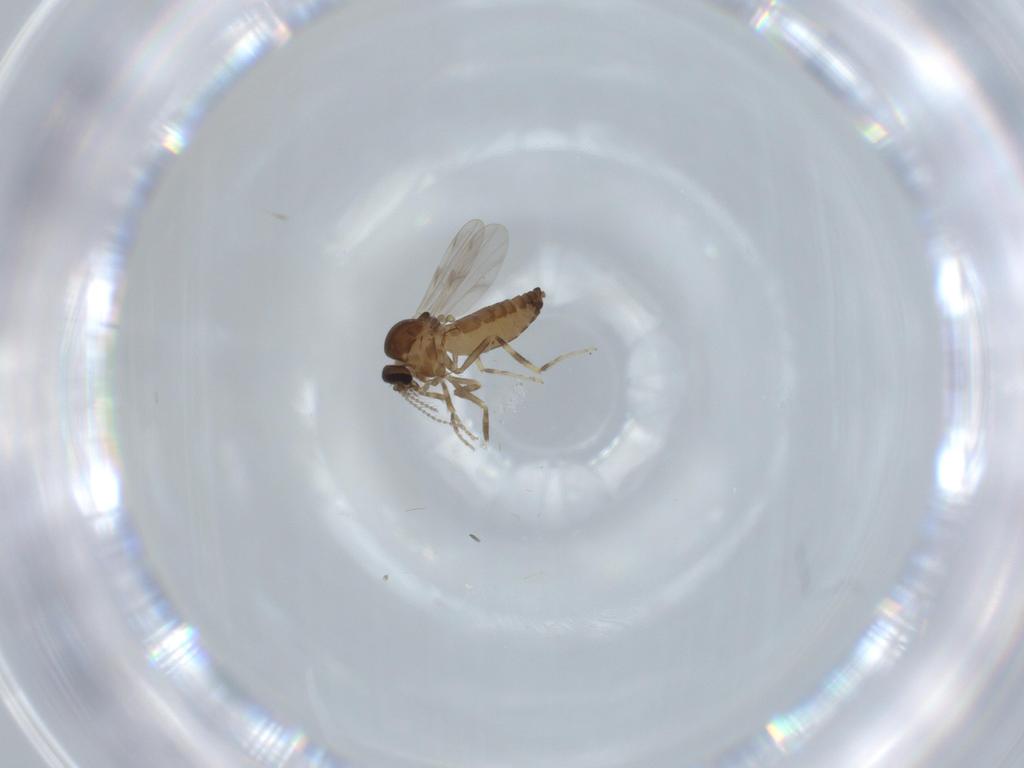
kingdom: Animalia
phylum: Arthropoda
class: Insecta
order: Diptera
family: Ceratopogonidae
